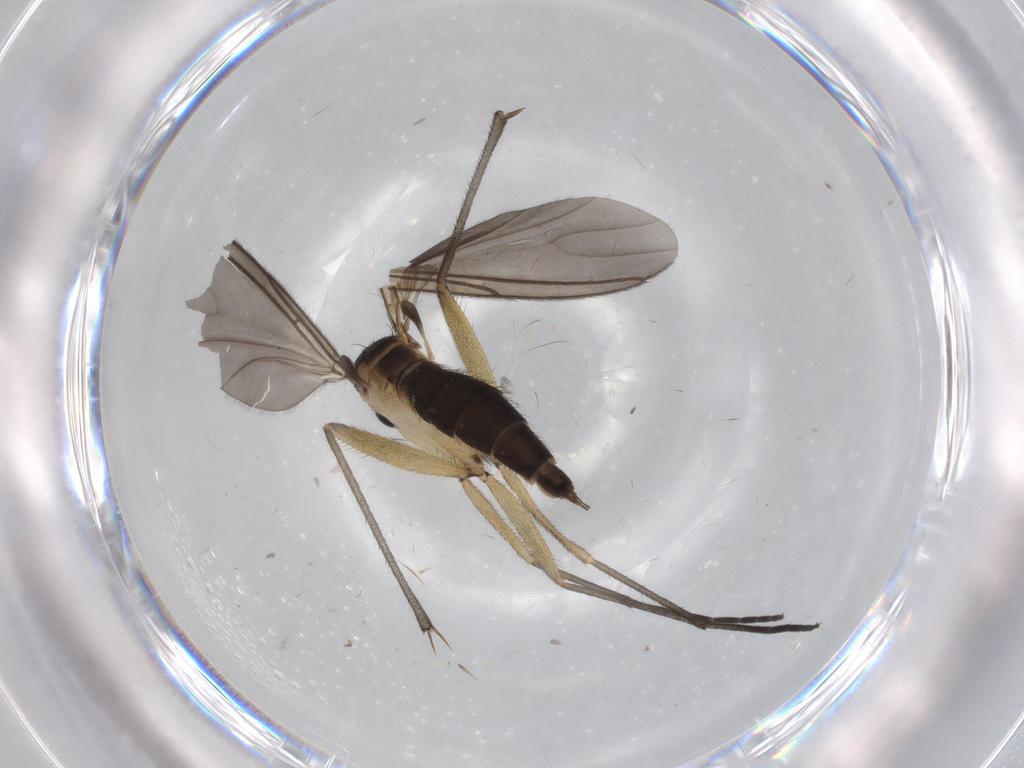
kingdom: Animalia
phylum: Arthropoda
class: Insecta
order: Diptera
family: Sciaridae
